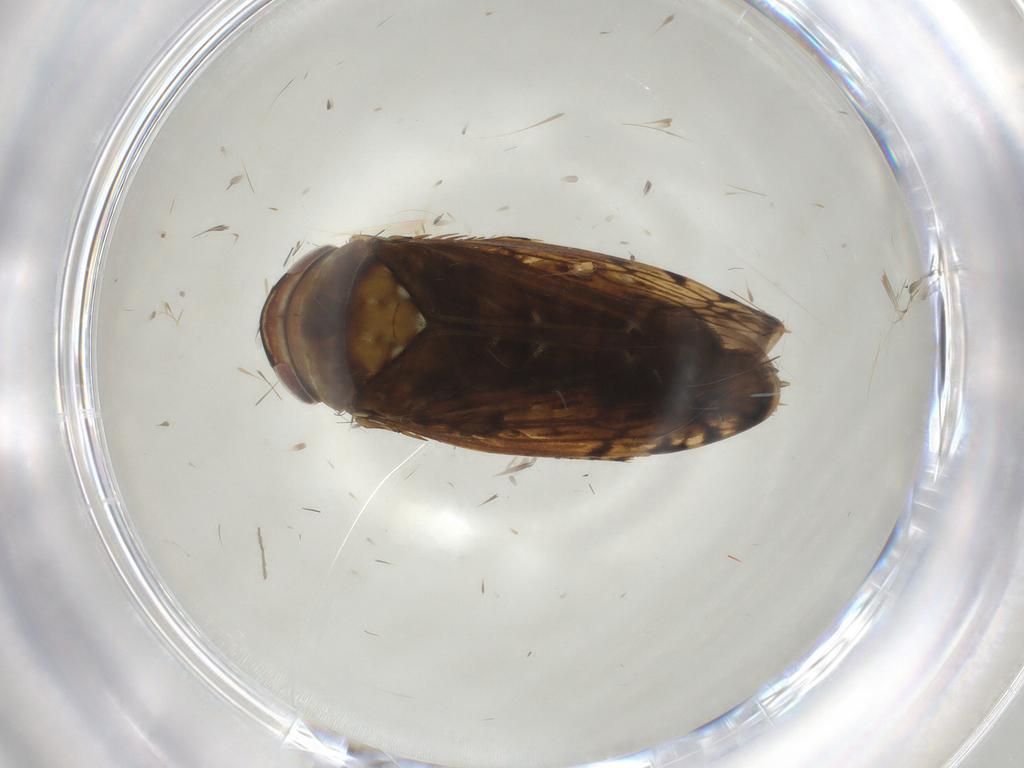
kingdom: Animalia
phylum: Arthropoda
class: Insecta
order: Hemiptera
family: Cicadellidae
